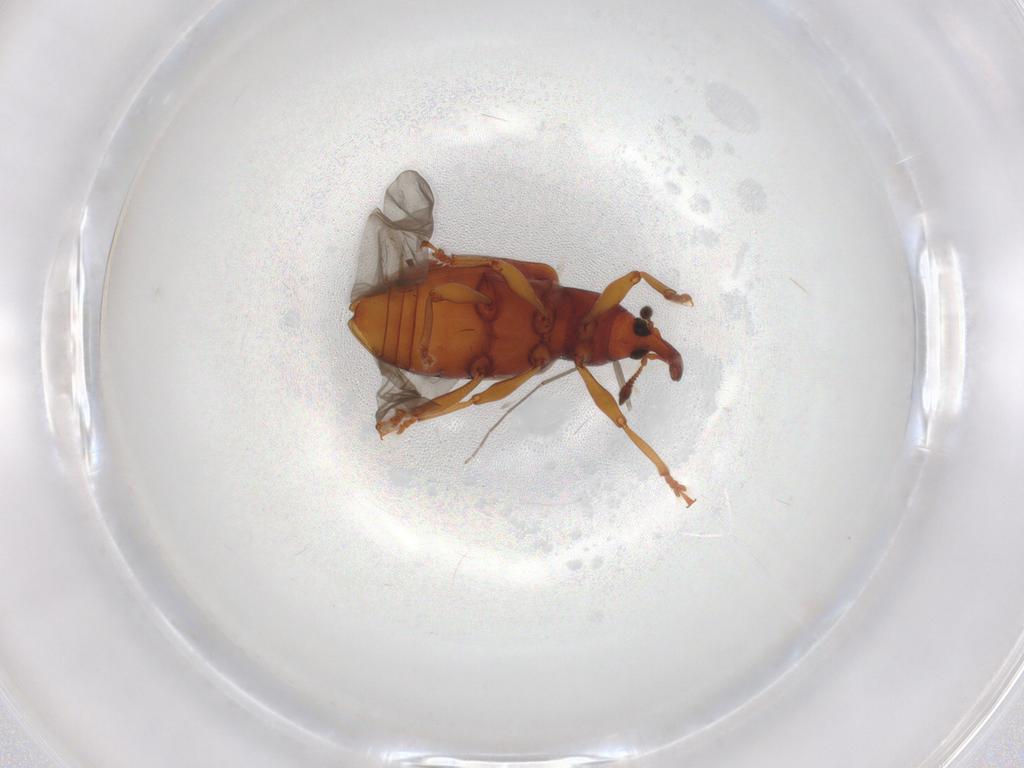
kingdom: Animalia
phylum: Arthropoda
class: Insecta
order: Coleoptera
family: Curculionidae
